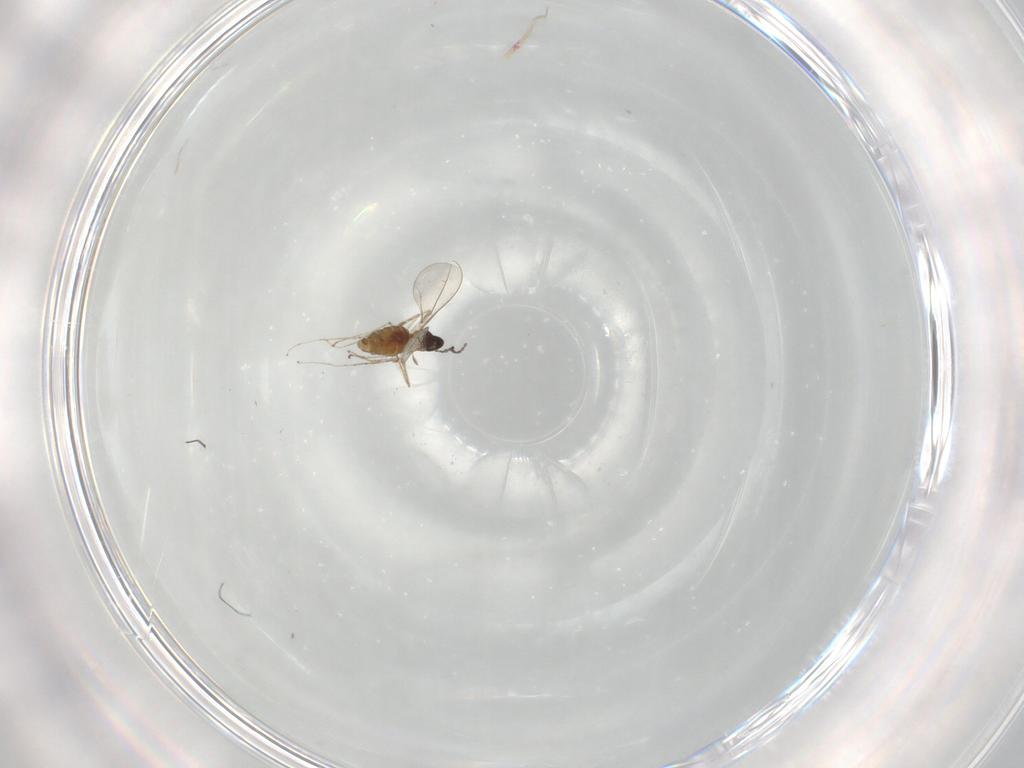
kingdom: Animalia
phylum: Arthropoda
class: Insecta
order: Diptera
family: Cecidomyiidae
